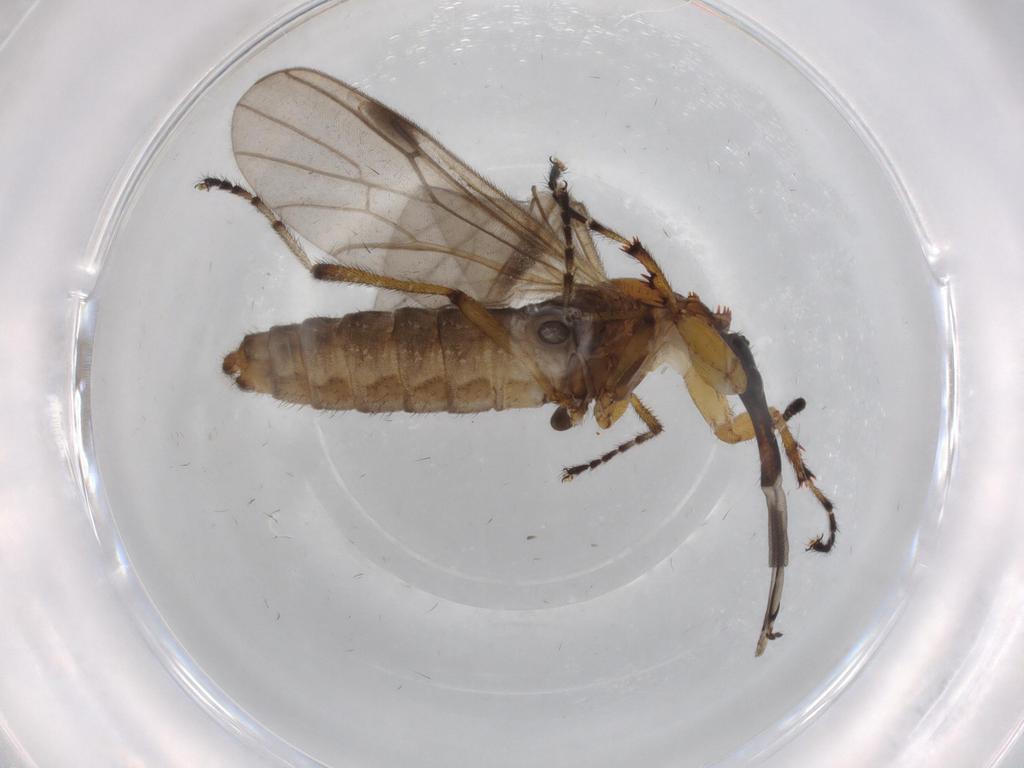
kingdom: Animalia
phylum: Arthropoda
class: Insecta
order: Diptera
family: Bibionidae
